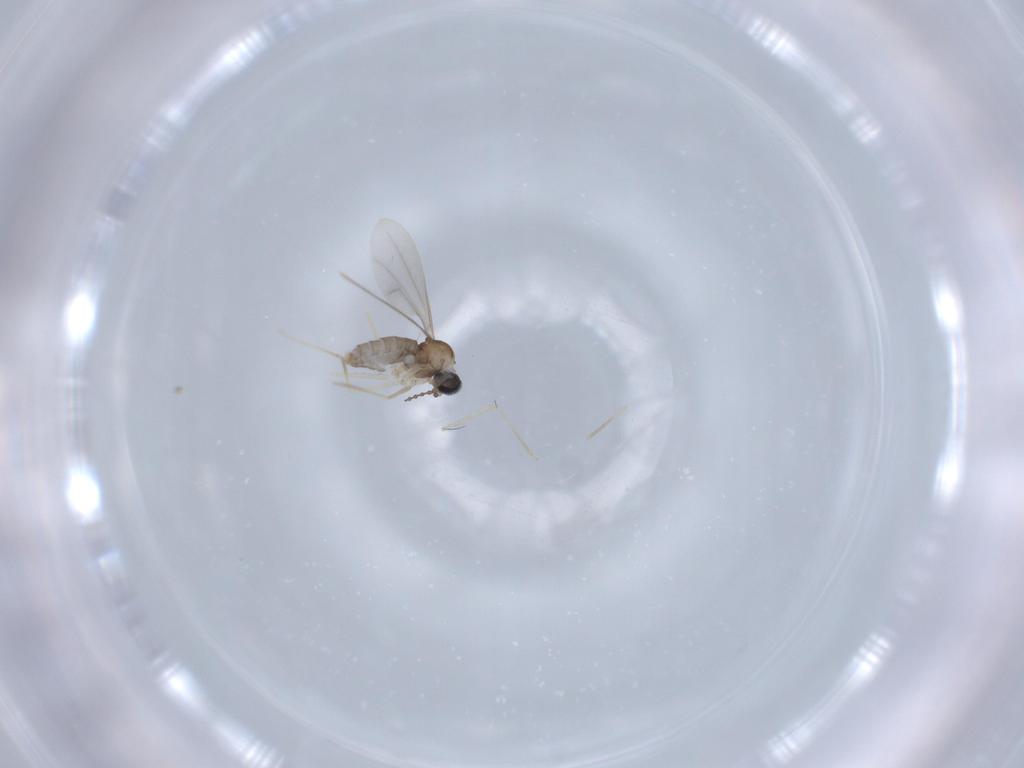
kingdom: Animalia
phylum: Arthropoda
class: Insecta
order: Diptera
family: Cecidomyiidae
